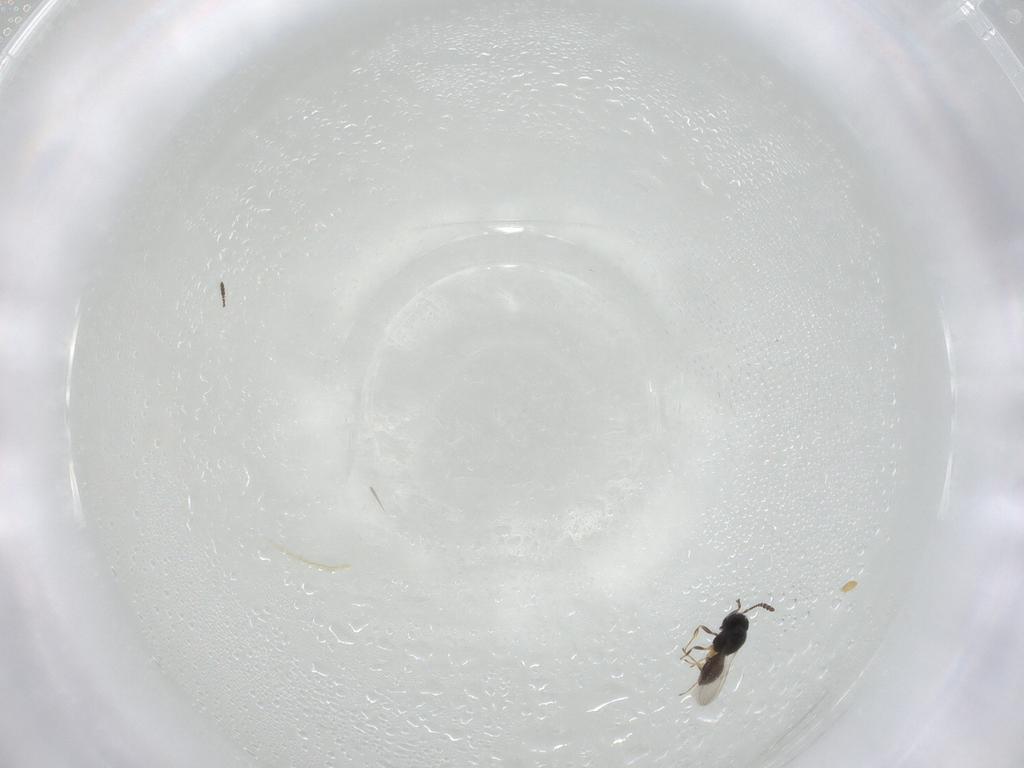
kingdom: Animalia
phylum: Arthropoda
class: Insecta
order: Hymenoptera
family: Scelionidae
